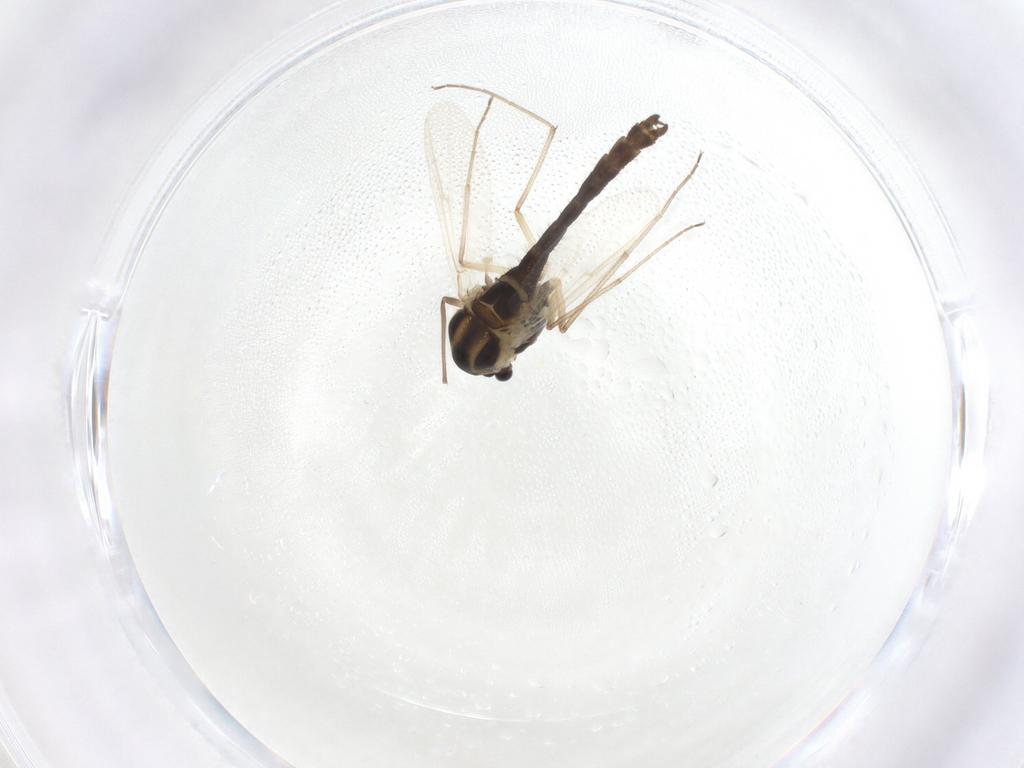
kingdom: Animalia
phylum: Arthropoda
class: Insecta
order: Diptera
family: Chironomidae
